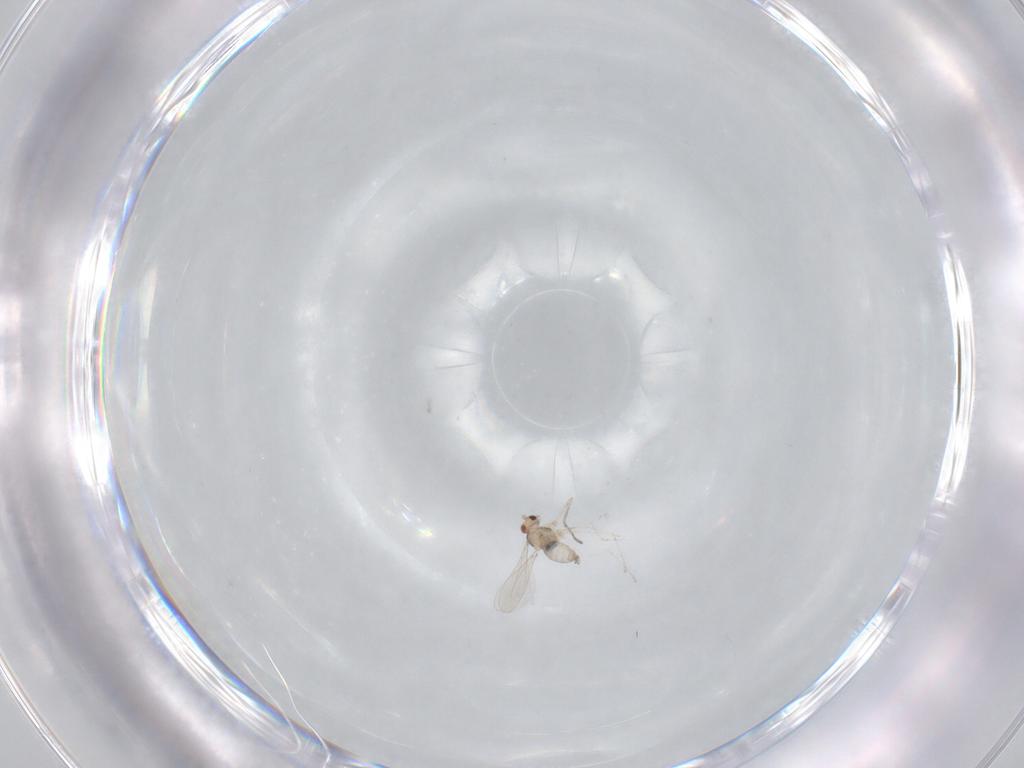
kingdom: Animalia
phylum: Arthropoda
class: Insecta
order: Diptera
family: Cecidomyiidae
